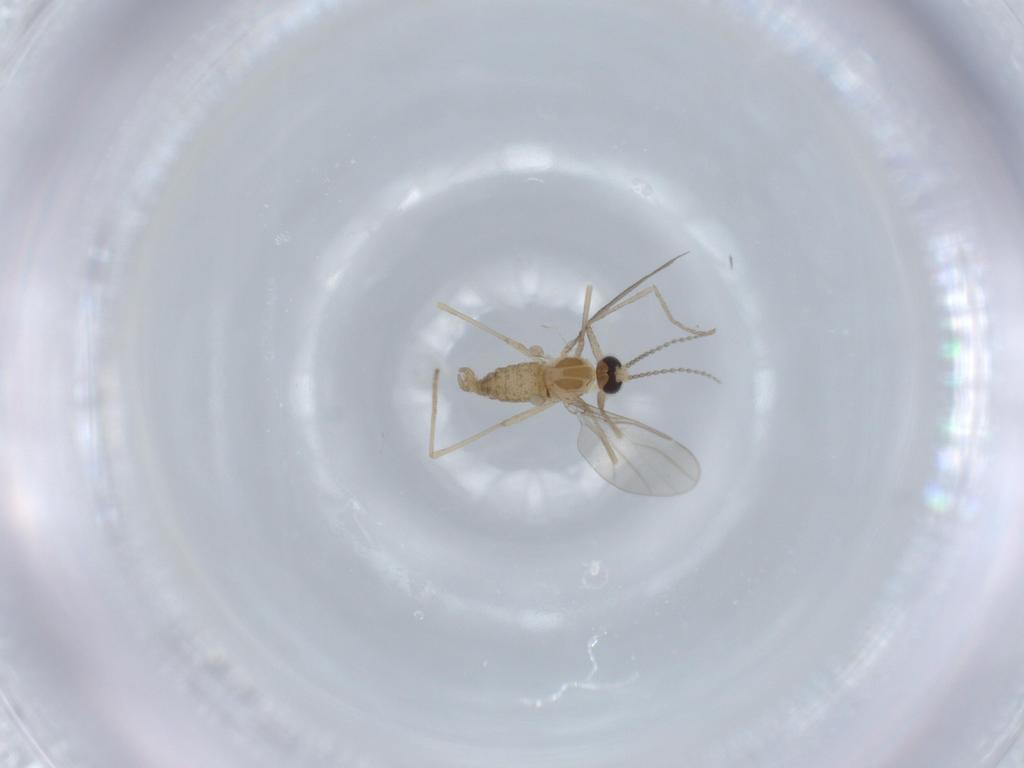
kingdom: Animalia
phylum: Arthropoda
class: Insecta
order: Diptera
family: Cecidomyiidae
